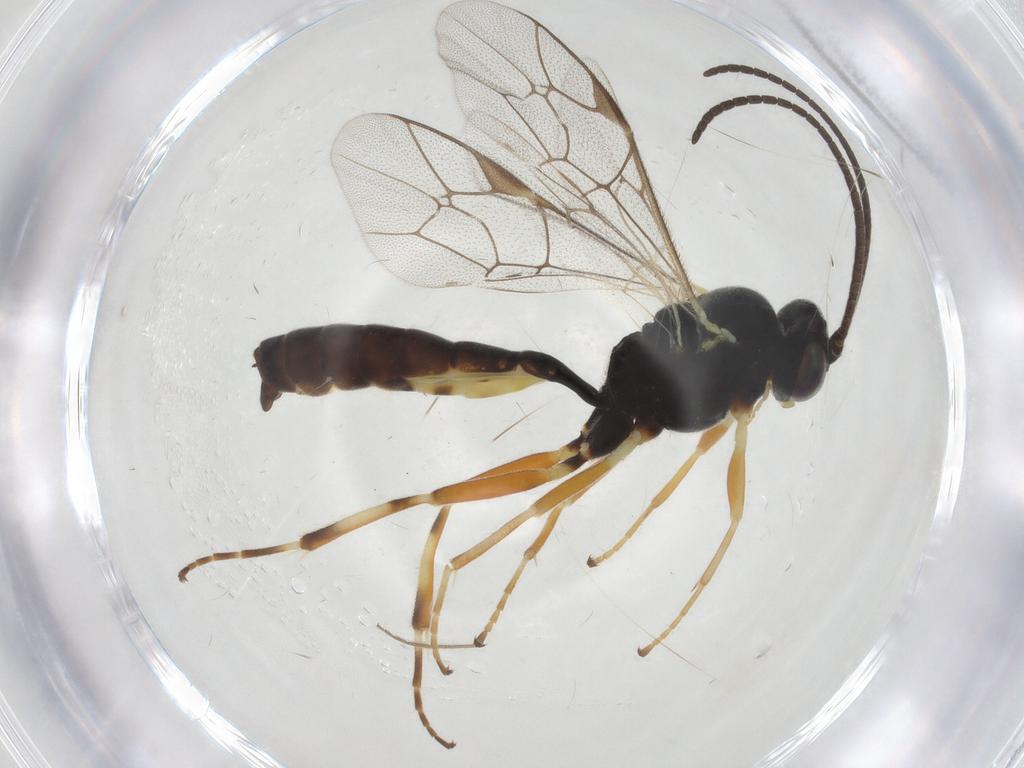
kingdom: Animalia
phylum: Arthropoda
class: Insecta
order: Hymenoptera
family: Ichneumonidae
